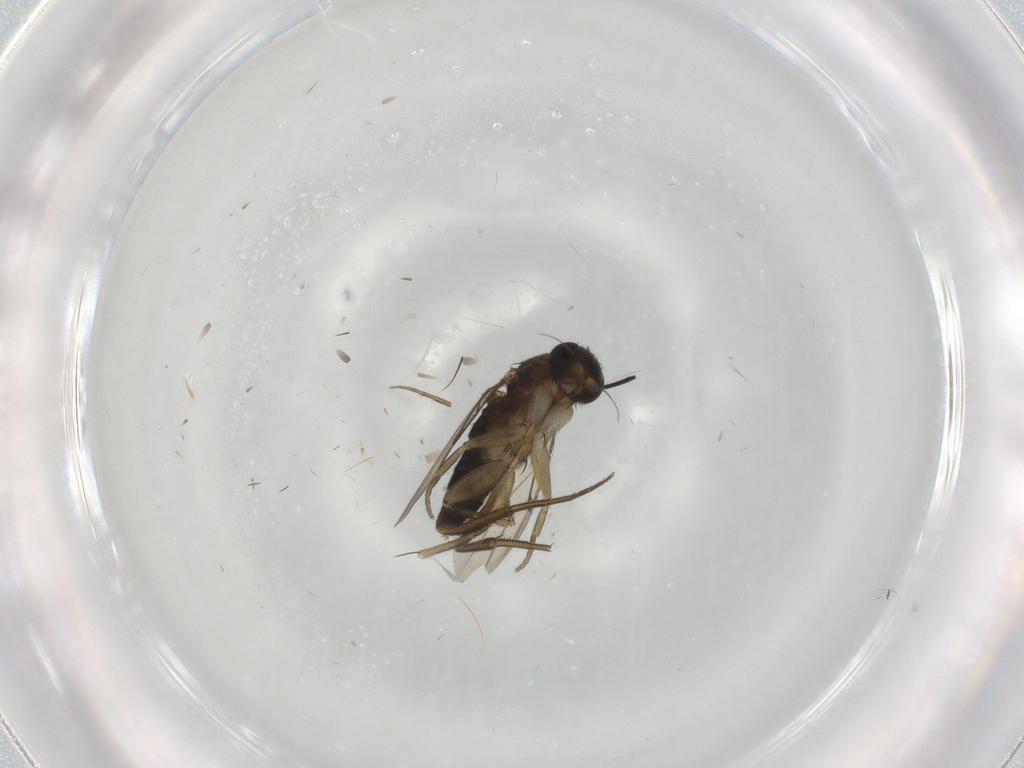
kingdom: Animalia
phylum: Arthropoda
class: Insecta
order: Diptera
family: Phoridae
